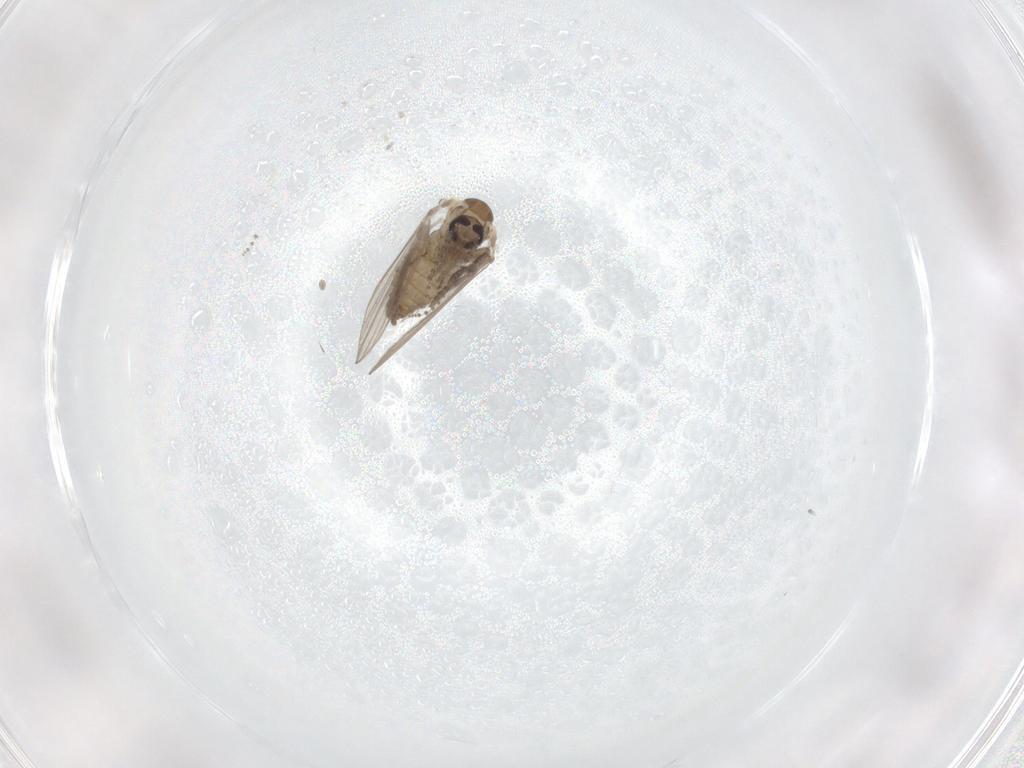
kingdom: Animalia
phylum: Arthropoda
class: Insecta
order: Diptera
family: Psychodidae
